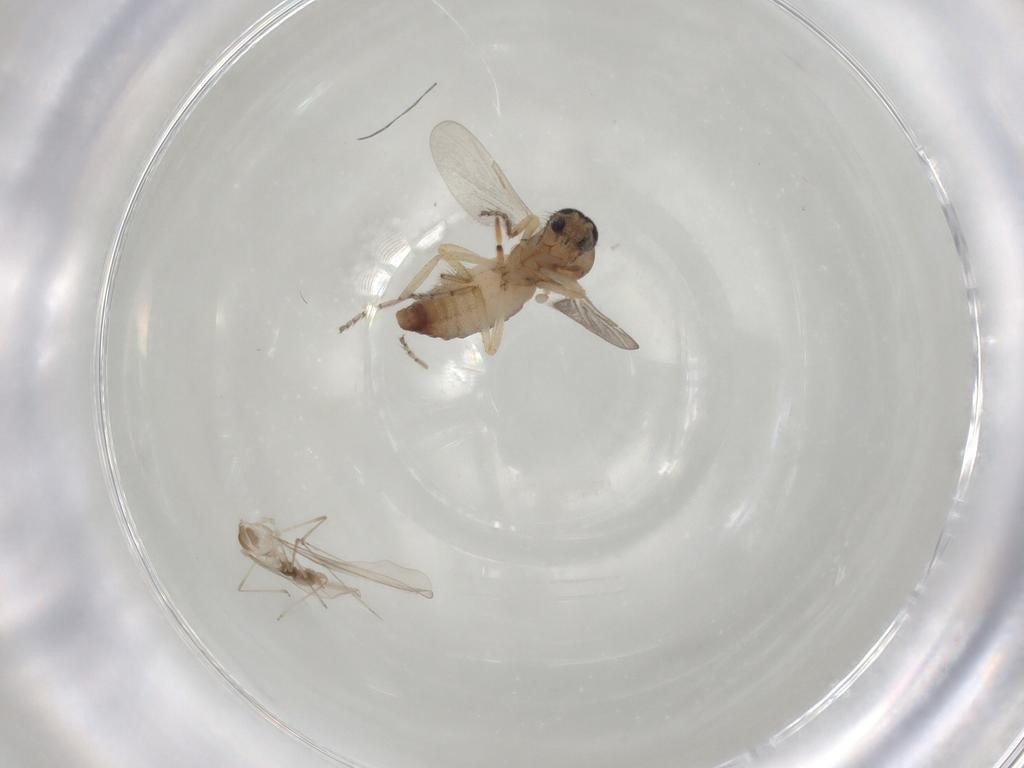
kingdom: Animalia
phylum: Arthropoda
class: Insecta
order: Diptera
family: Ceratopogonidae
